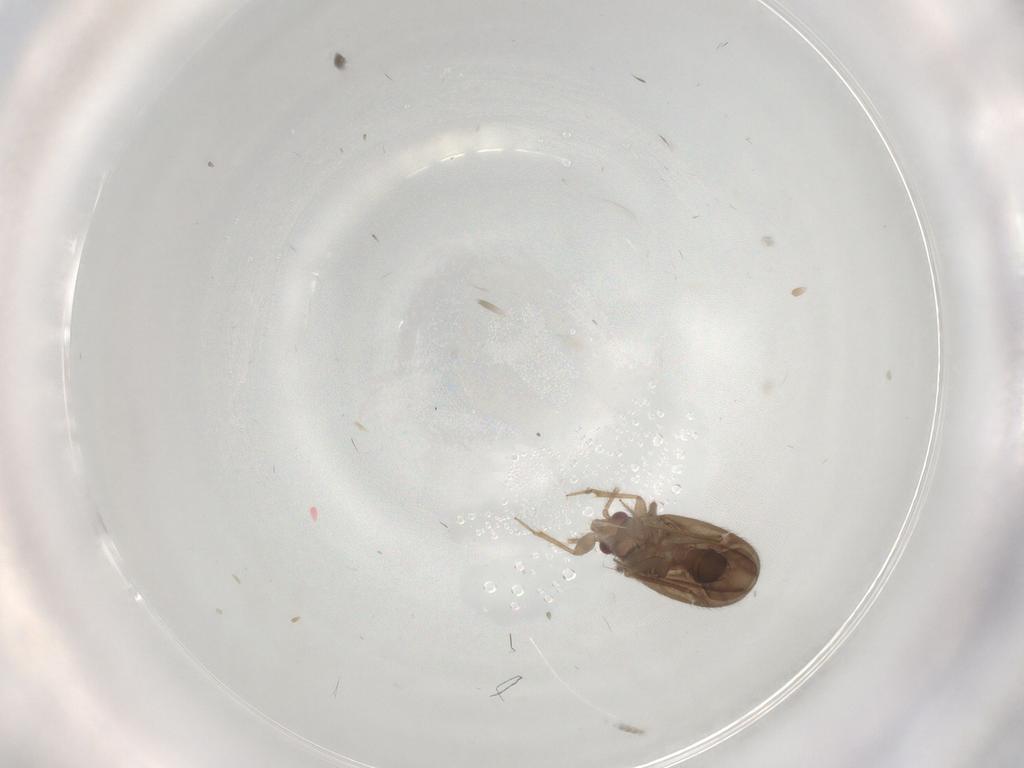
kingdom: Animalia
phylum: Arthropoda
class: Insecta
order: Hemiptera
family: Ceratocombidae
